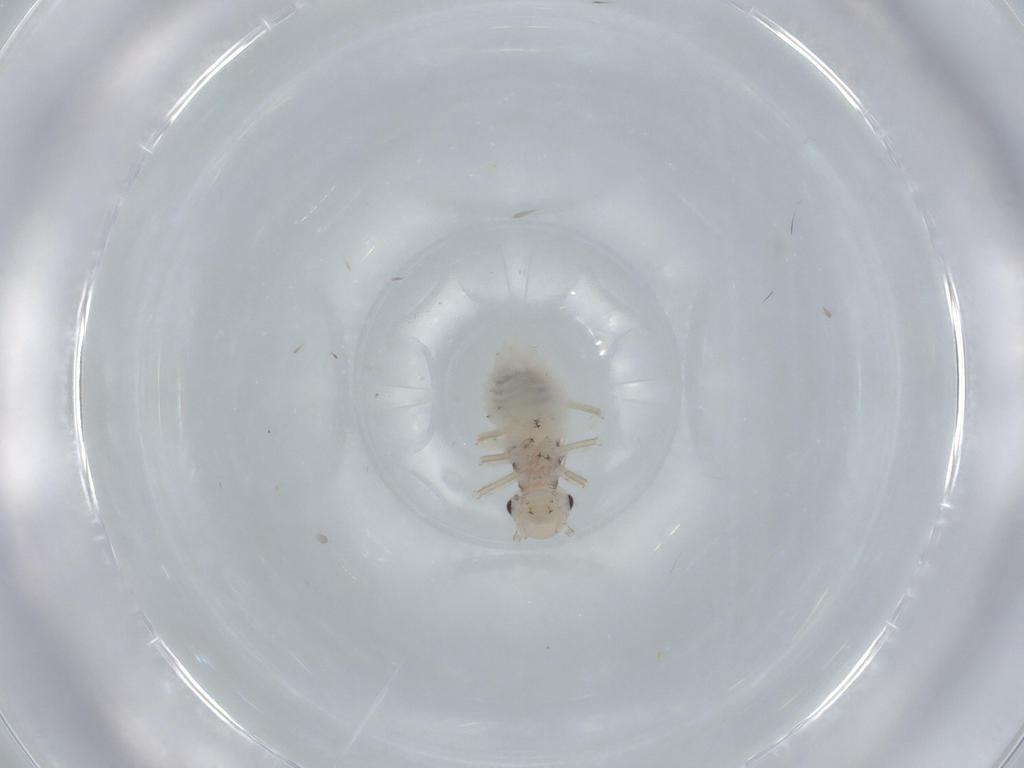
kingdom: Animalia
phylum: Arthropoda
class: Insecta
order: Psocodea
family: Amphipsocidae
